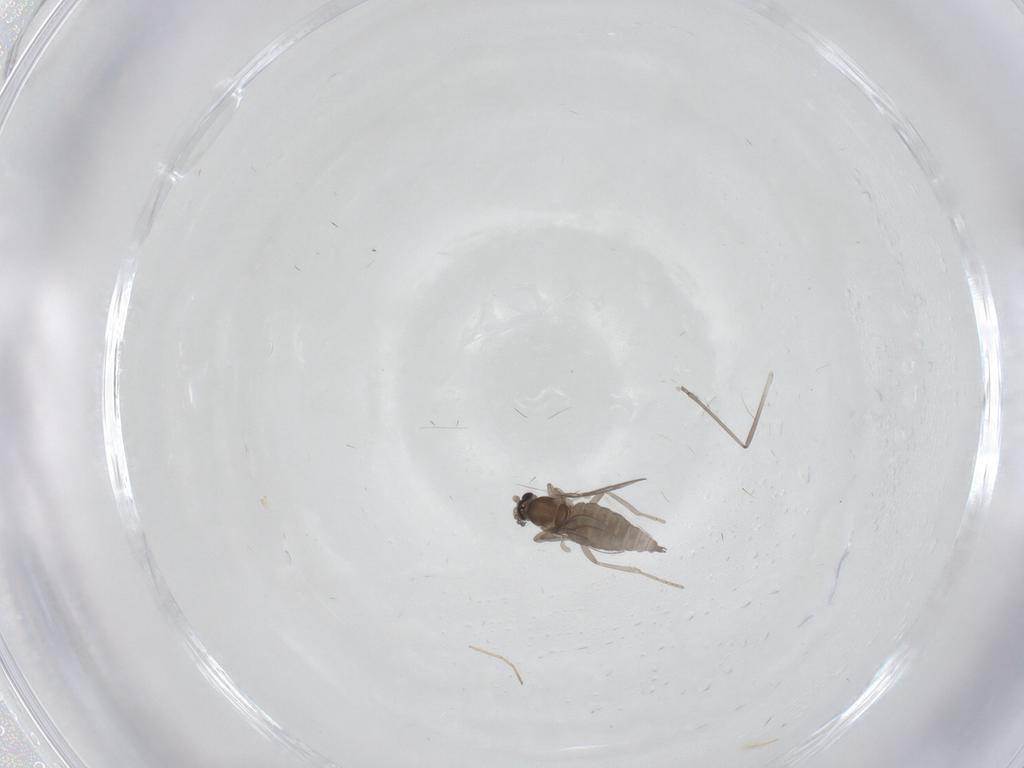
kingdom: Animalia
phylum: Arthropoda
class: Insecta
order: Diptera
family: Cecidomyiidae
